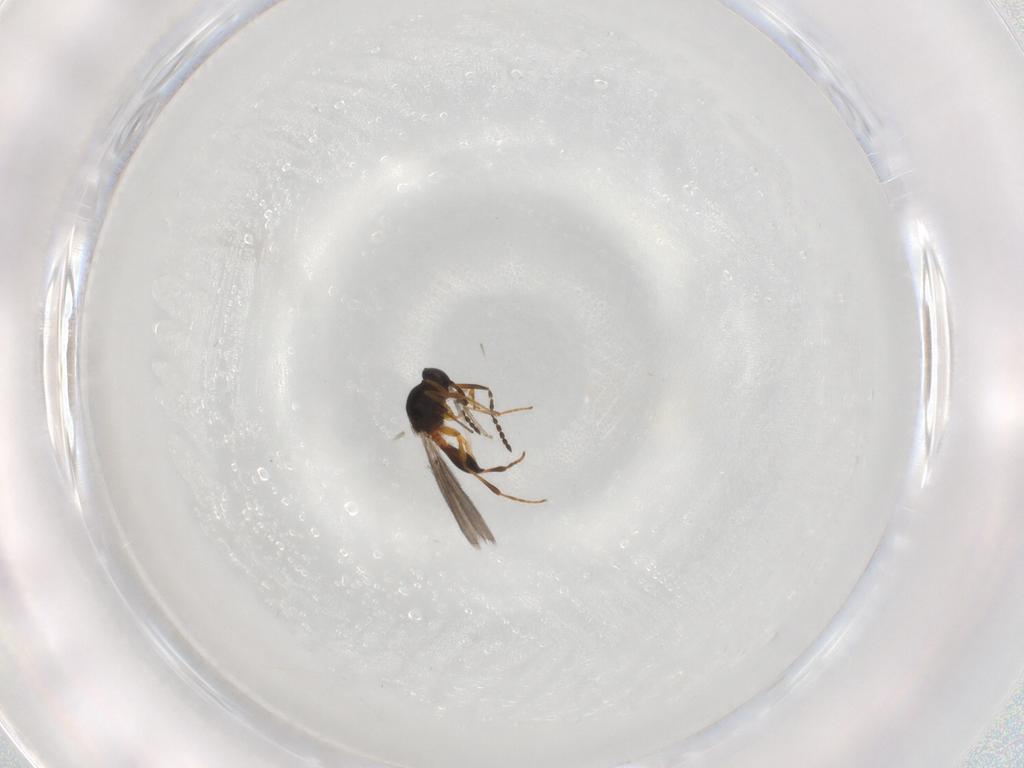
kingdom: Animalia
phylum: Arthropoda
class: Insecta
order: Hymenoptera
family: Platygastridae
